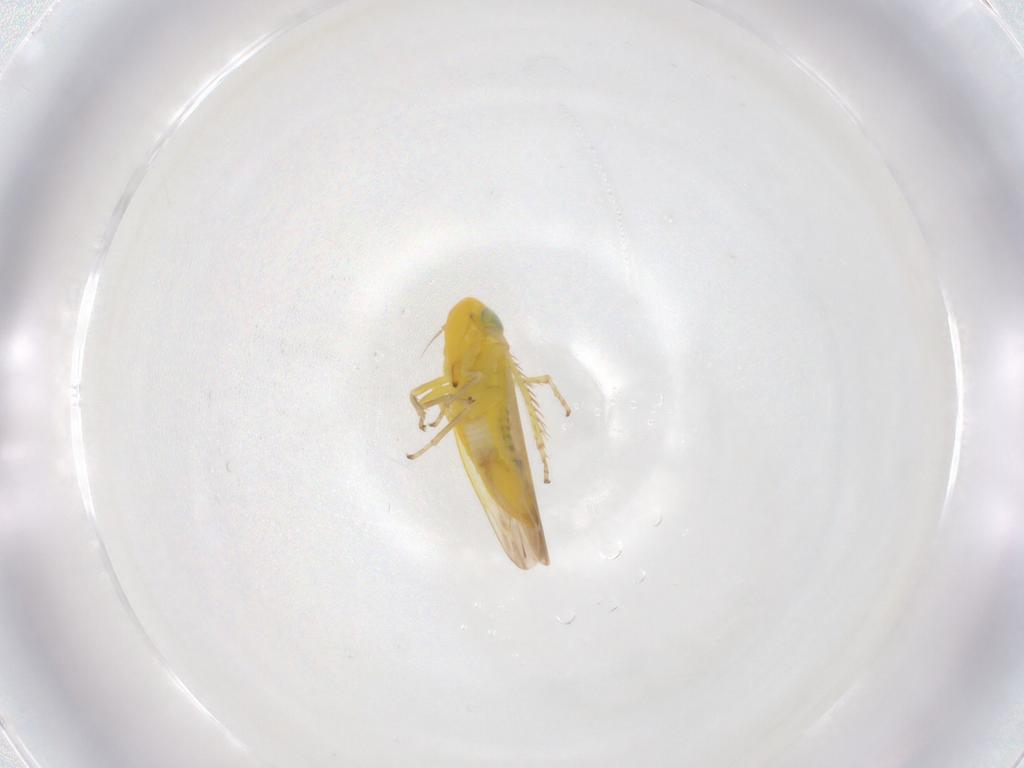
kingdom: Animalia
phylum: Arthropoda
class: Insecta
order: Hemiptera
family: Cicadellidae
